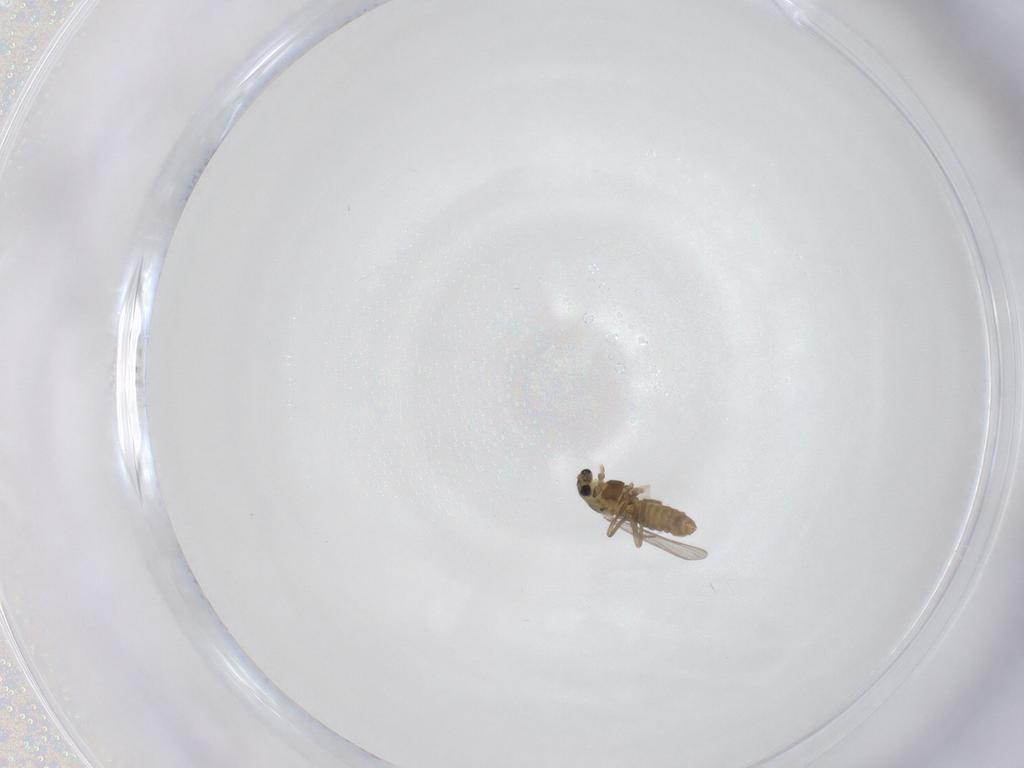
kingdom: Animalia
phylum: Arthropoda
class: Insecta
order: Diptera
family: Chironomidae
